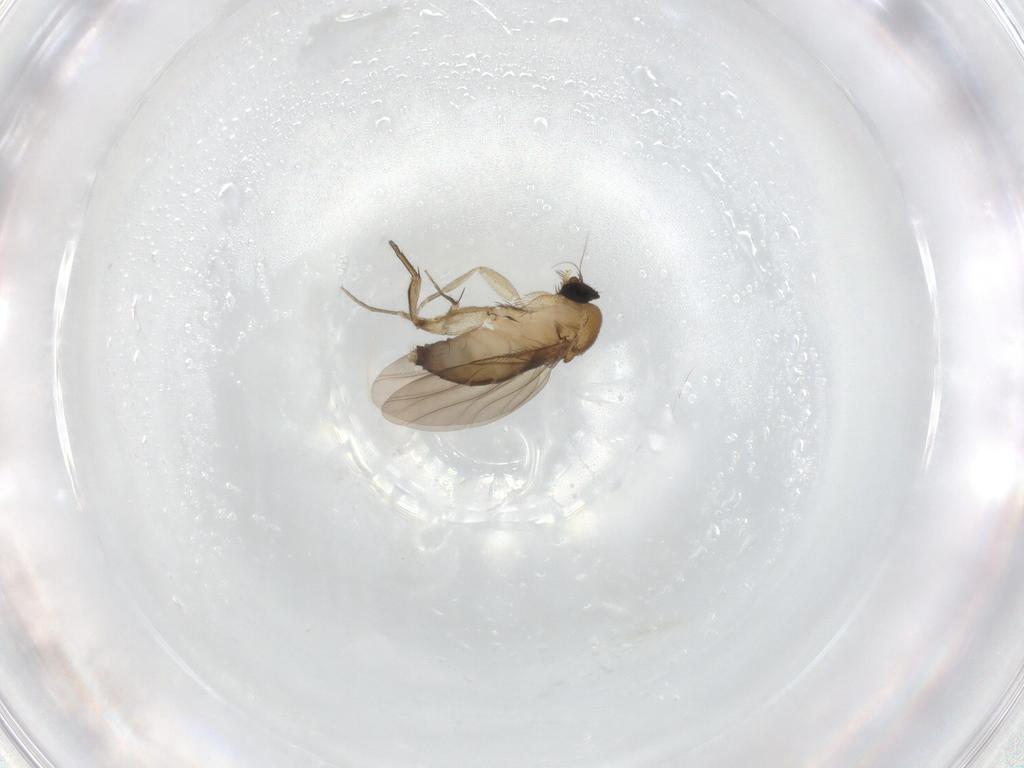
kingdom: Animalia
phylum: Arthropoda
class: Insecta
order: Diptera
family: Phoridae
